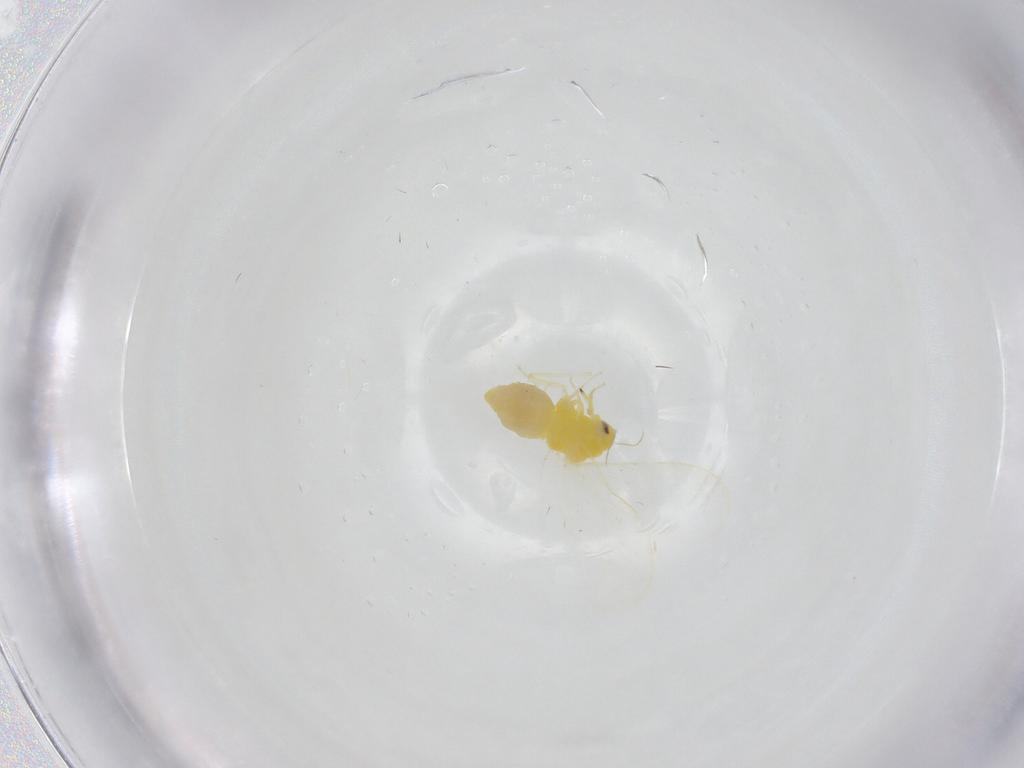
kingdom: Animalia
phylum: Arthropoda
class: Insecta
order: Hemiptera
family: Aleyrodidae
